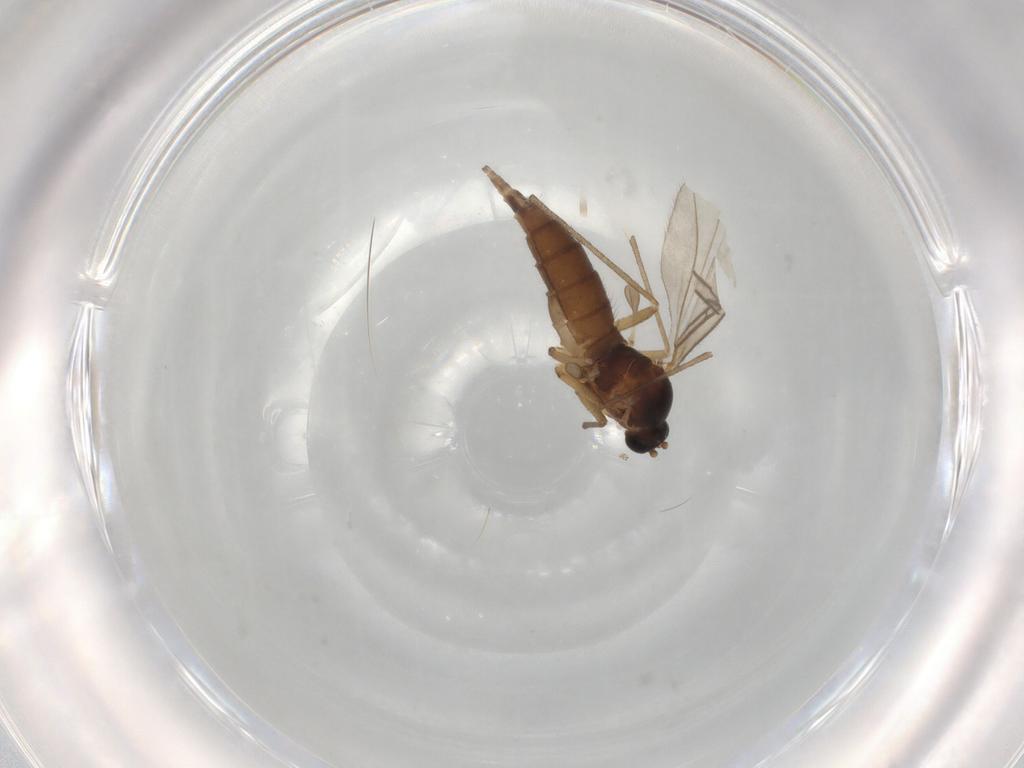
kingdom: Animalia
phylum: Arthropoda
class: Insecta
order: Diptera
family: Sciaridae
